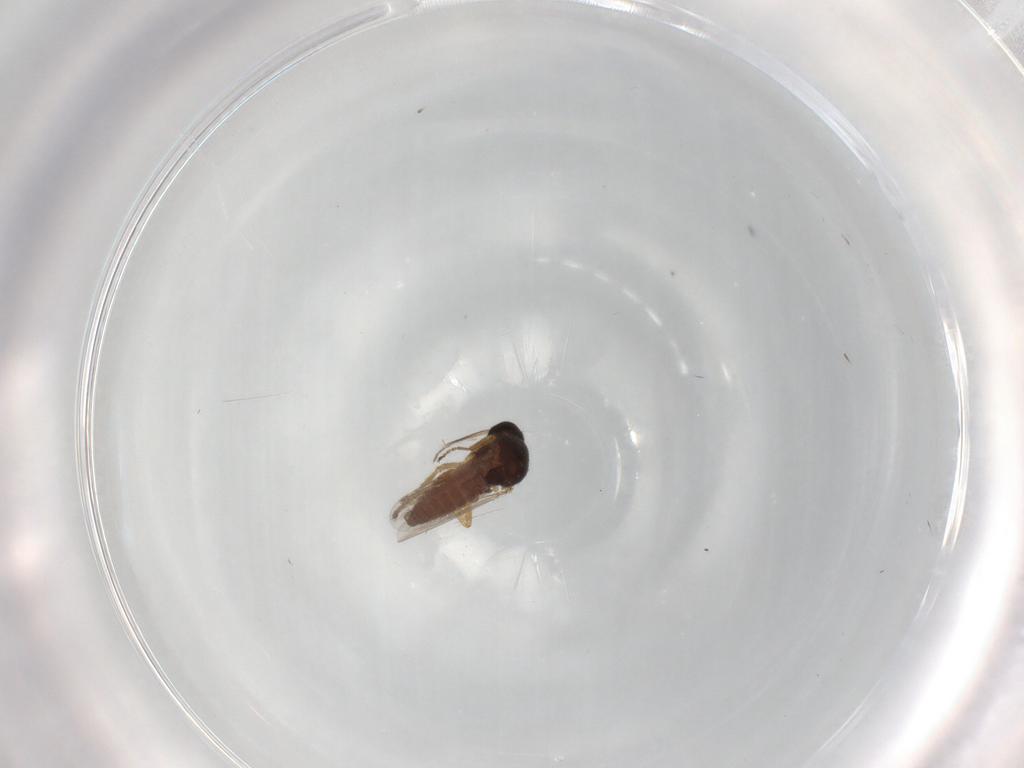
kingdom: Animalia
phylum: Arthropoda
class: Insecta
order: Diptera
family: Ceratopogonidae
